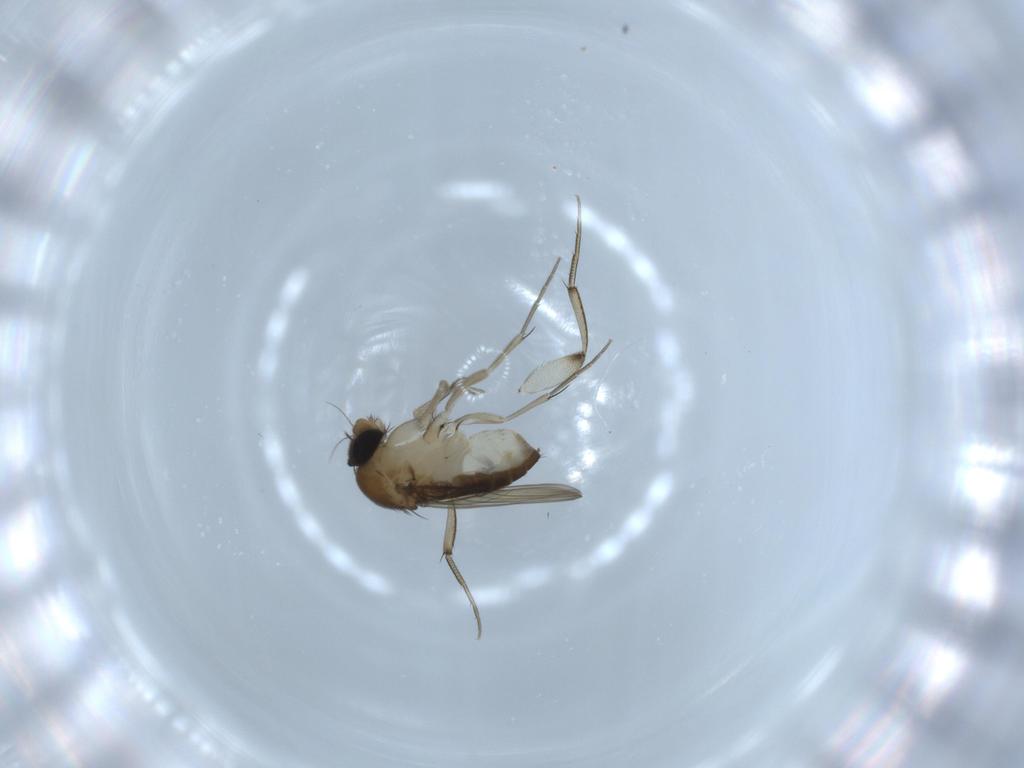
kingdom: Animalia
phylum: Arthropoda
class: Insecta
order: Diptera
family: Phoridae
